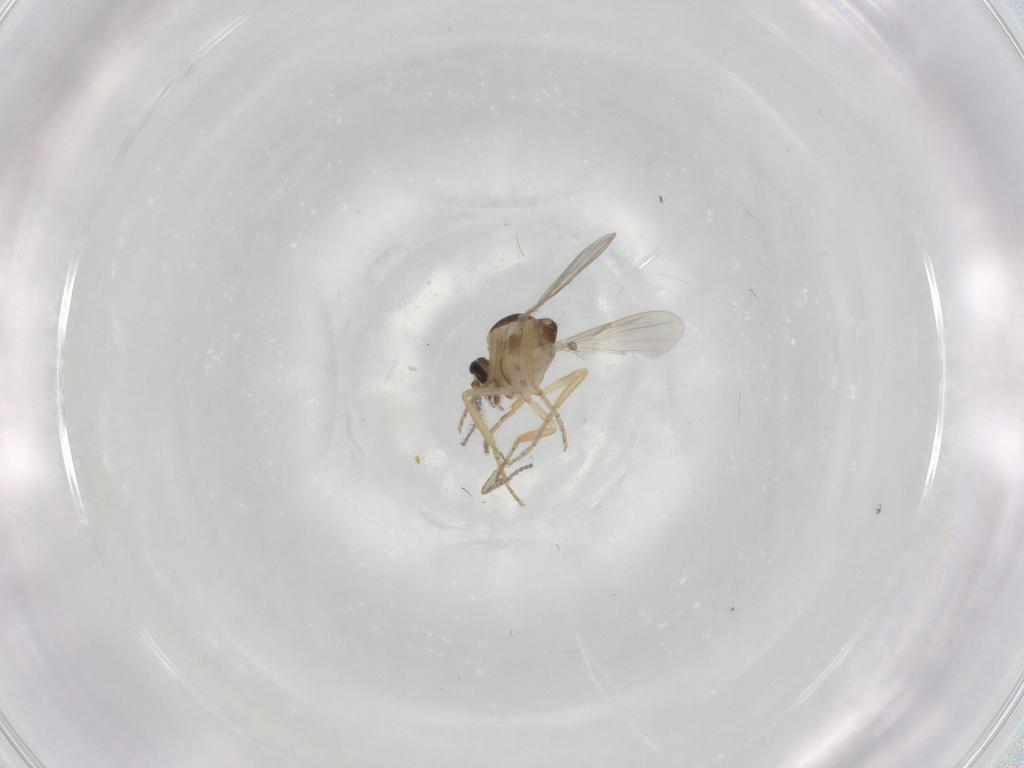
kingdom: Animalia
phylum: Arthropoda
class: Insecta
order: Diptera
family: Ceratopogonidae
